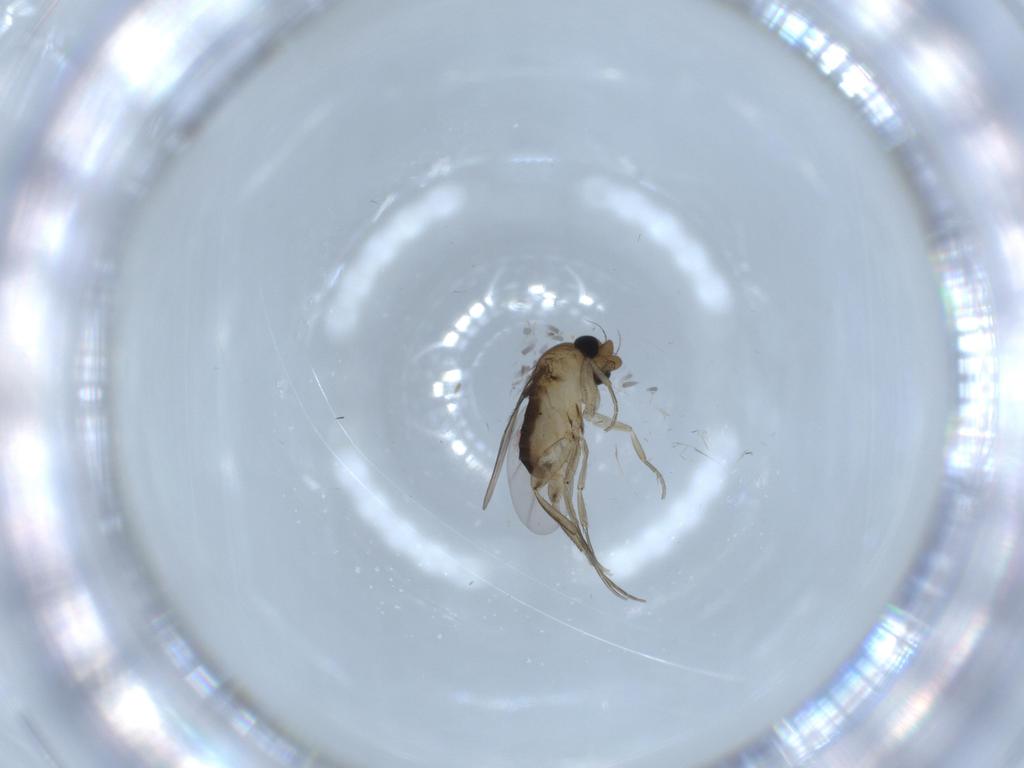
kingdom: Animalia
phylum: Arthropoda
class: Insecta
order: Diptera
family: Phoridae
